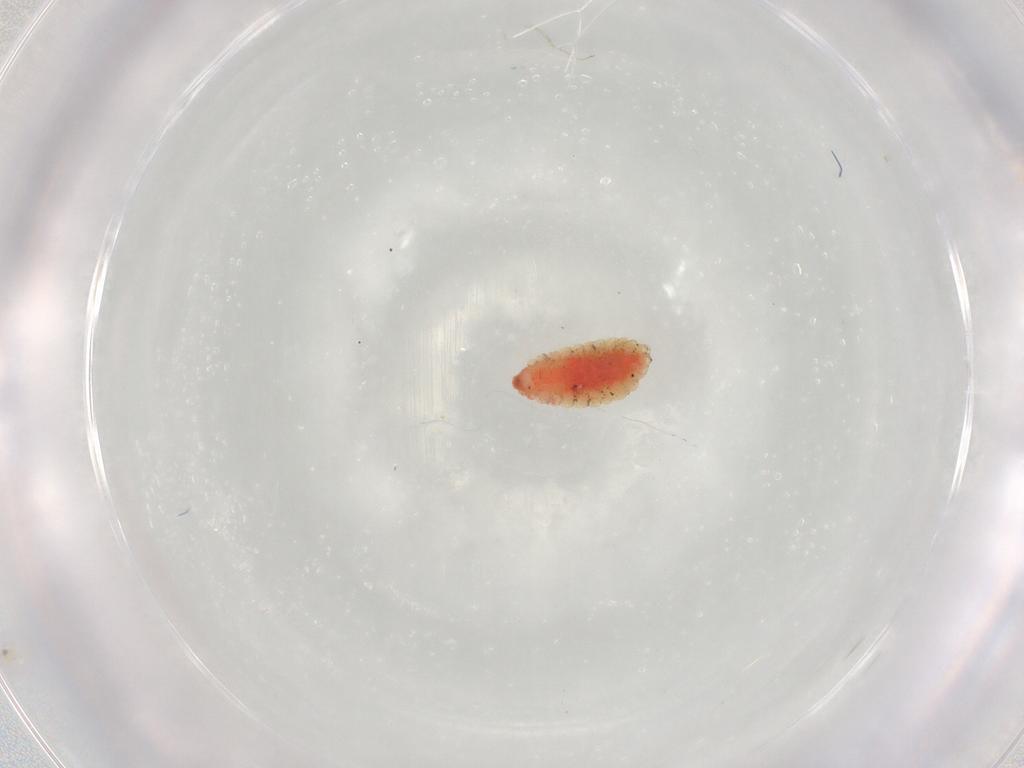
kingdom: Animalia
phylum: Arthropoda
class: Insecta
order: Diptera
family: Cecidomyiidae
